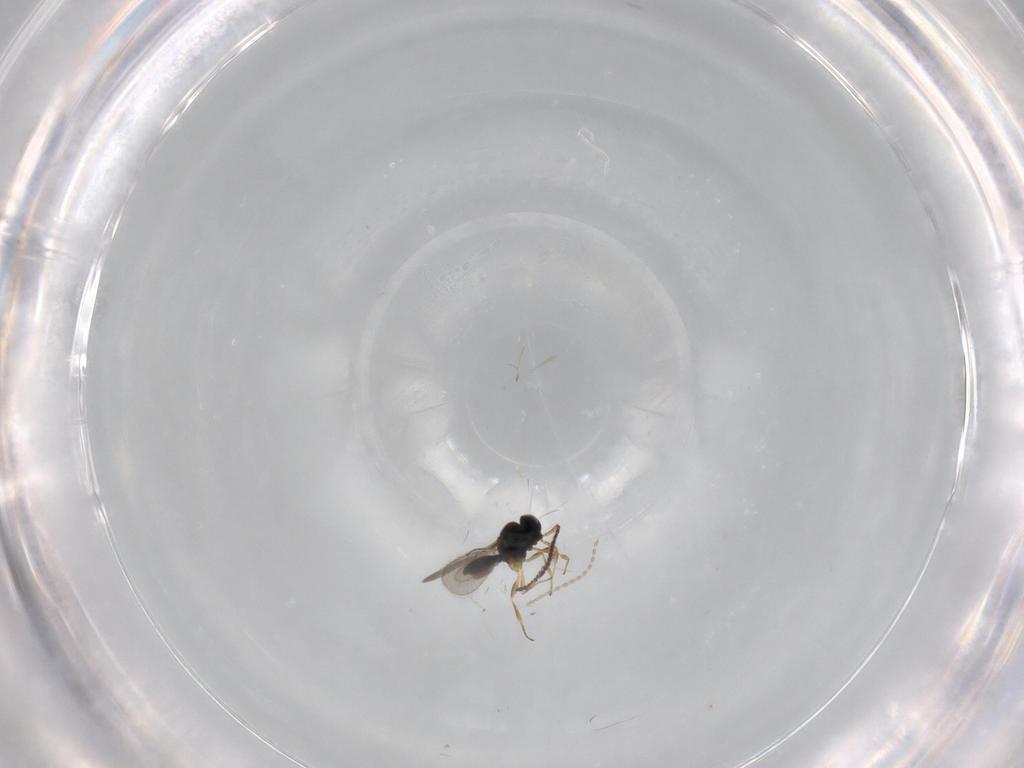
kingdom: Animalia
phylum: Arthropoda
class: Insecta
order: Hymenoptera
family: Scelionidae
